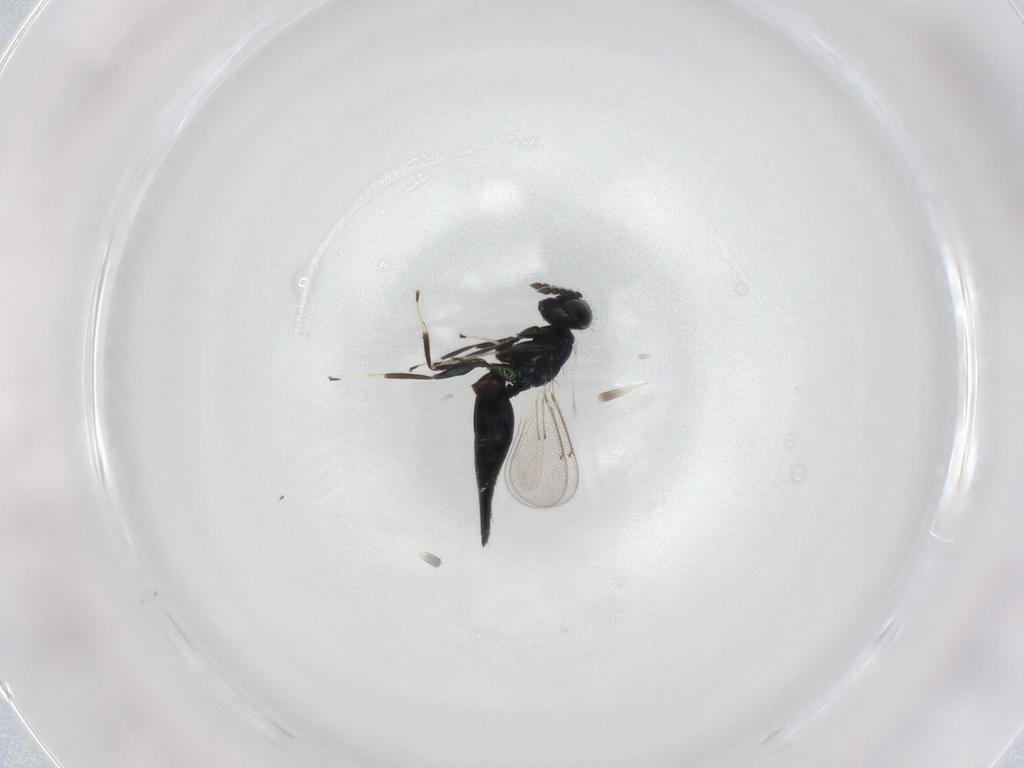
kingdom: Animalia
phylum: Arthropoda
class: Insecta
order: Hymenoptera
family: Eulophidae
